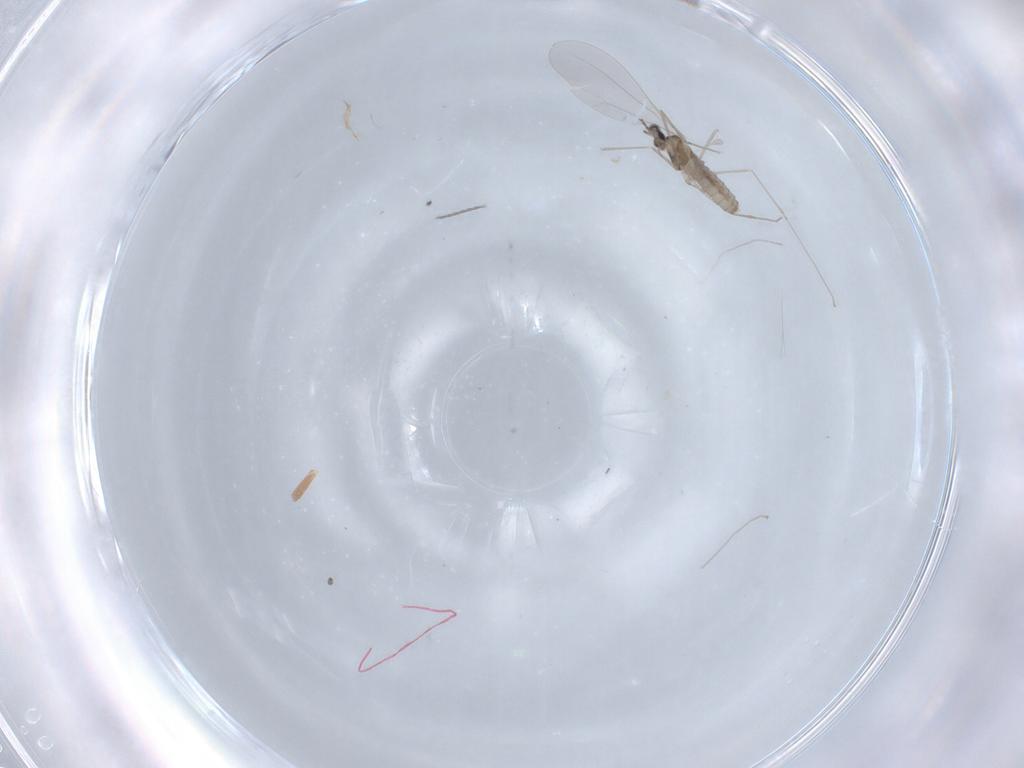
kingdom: Animalia
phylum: Arthropoda
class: Insecta
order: Diptera
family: Cecidomyiidae
